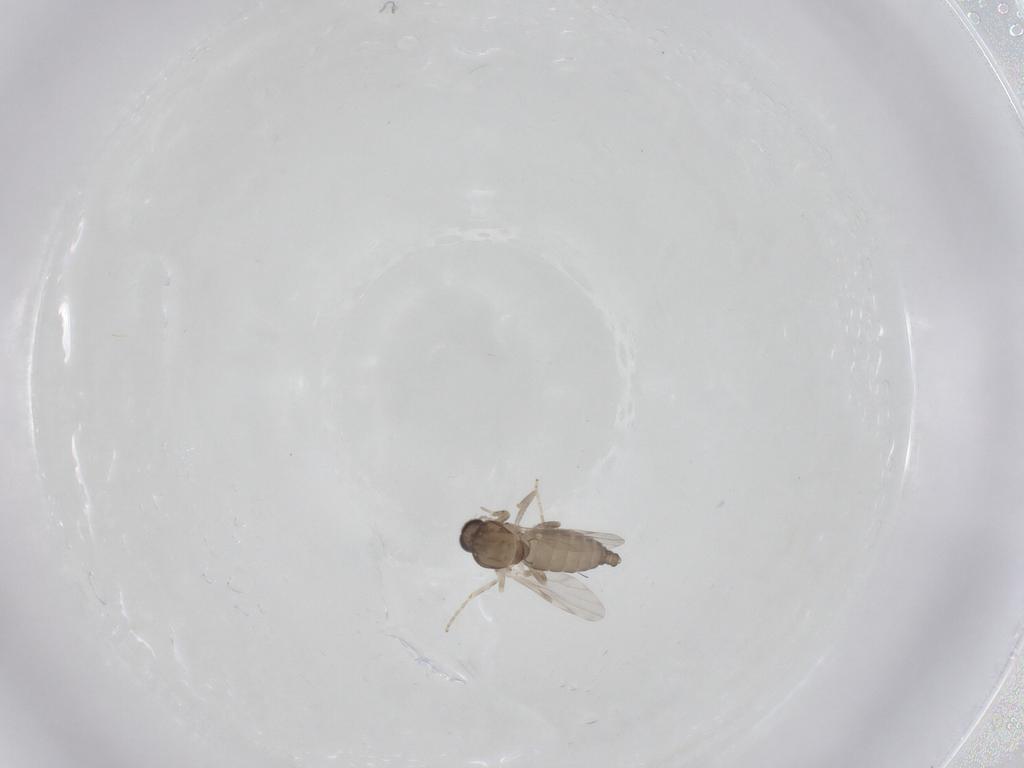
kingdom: Animalia
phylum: Arthropoda
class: Insecta
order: Diptera
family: Ceratopogonidae
